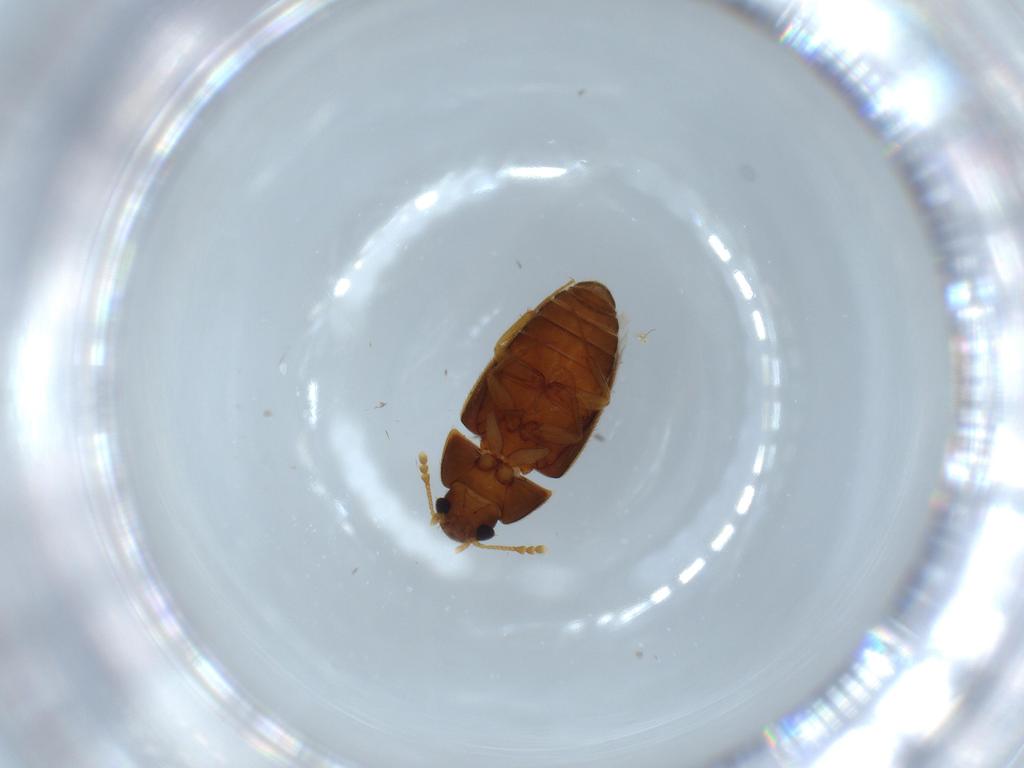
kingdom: Animalia
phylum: Arthropoda
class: Insecta
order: Coleoptera
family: Mycetophagidae
